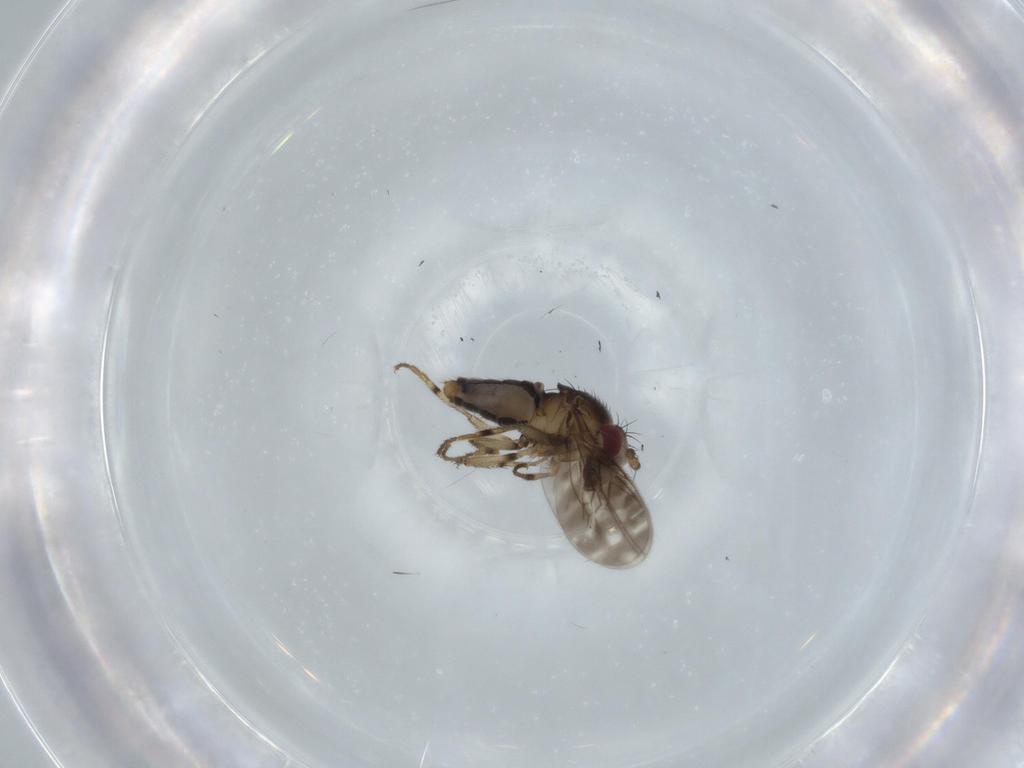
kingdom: Animalia
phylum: Arthropoda
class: Insecta
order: Diptera
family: Sphaeroceridae
